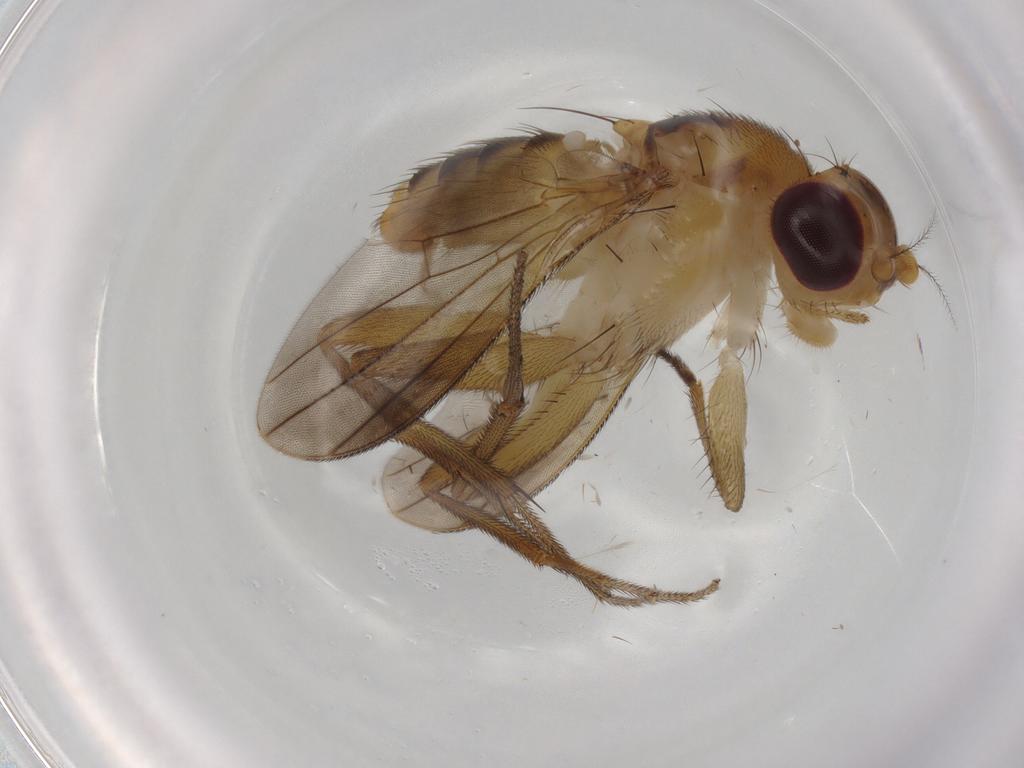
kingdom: Animalia
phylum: Arthropoda
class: Insecta
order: Diptera
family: Clusiidae
